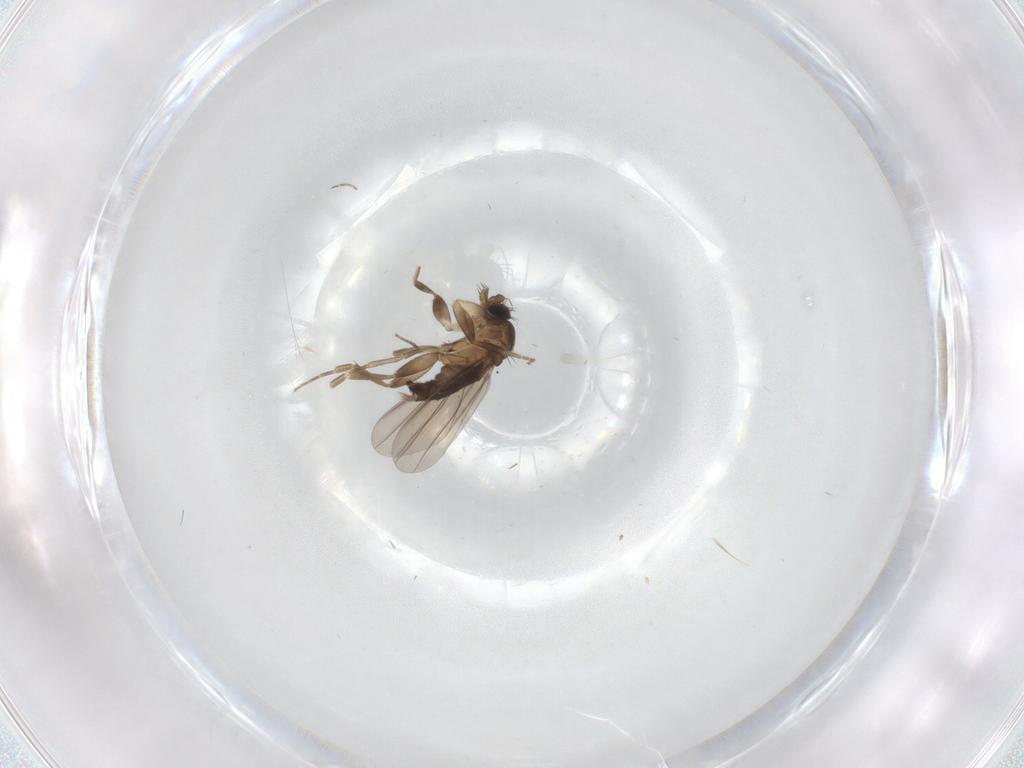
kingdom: Animalia
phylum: Arthropoda
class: Insecta
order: Diptera
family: Phoridae
